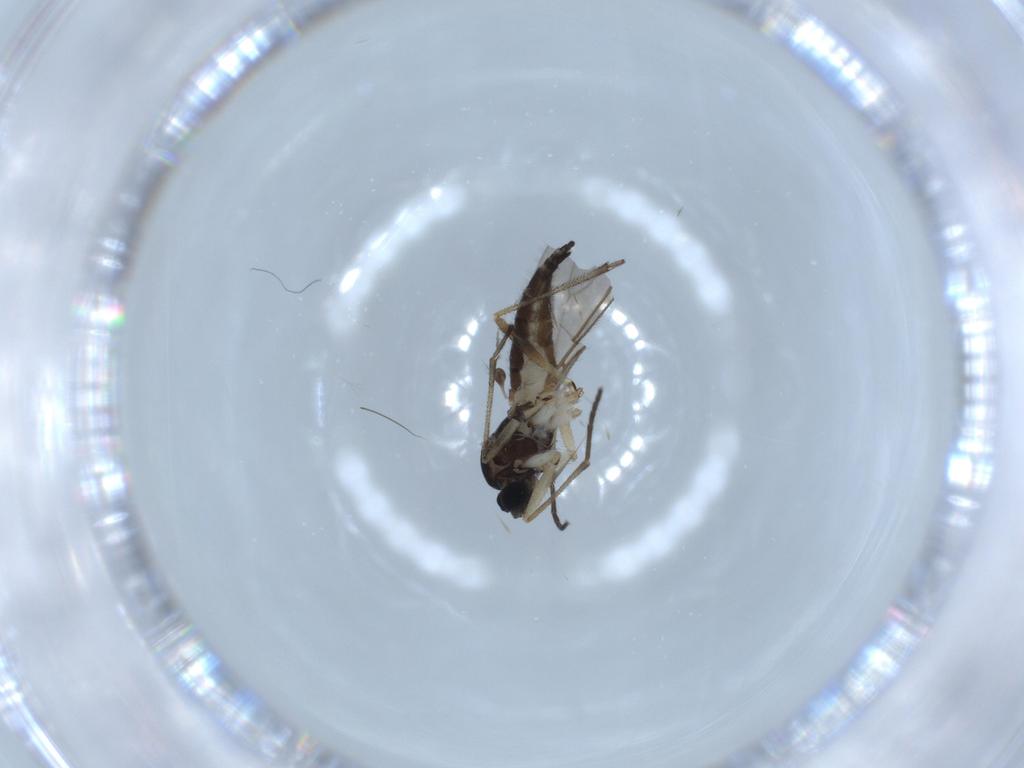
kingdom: Animalia
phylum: Arthropoda
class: Insecta
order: Diptera
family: Sciaridae
